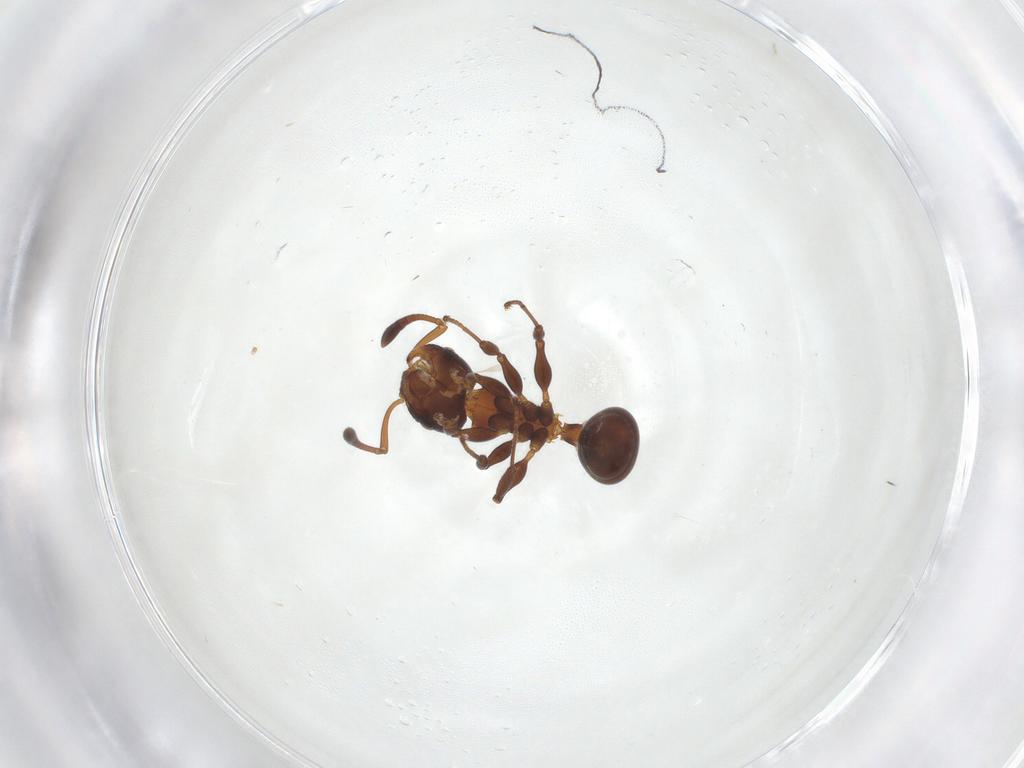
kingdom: Animalia
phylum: Arthropoda
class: Insecta
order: Hymenoptera
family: Formicidae
